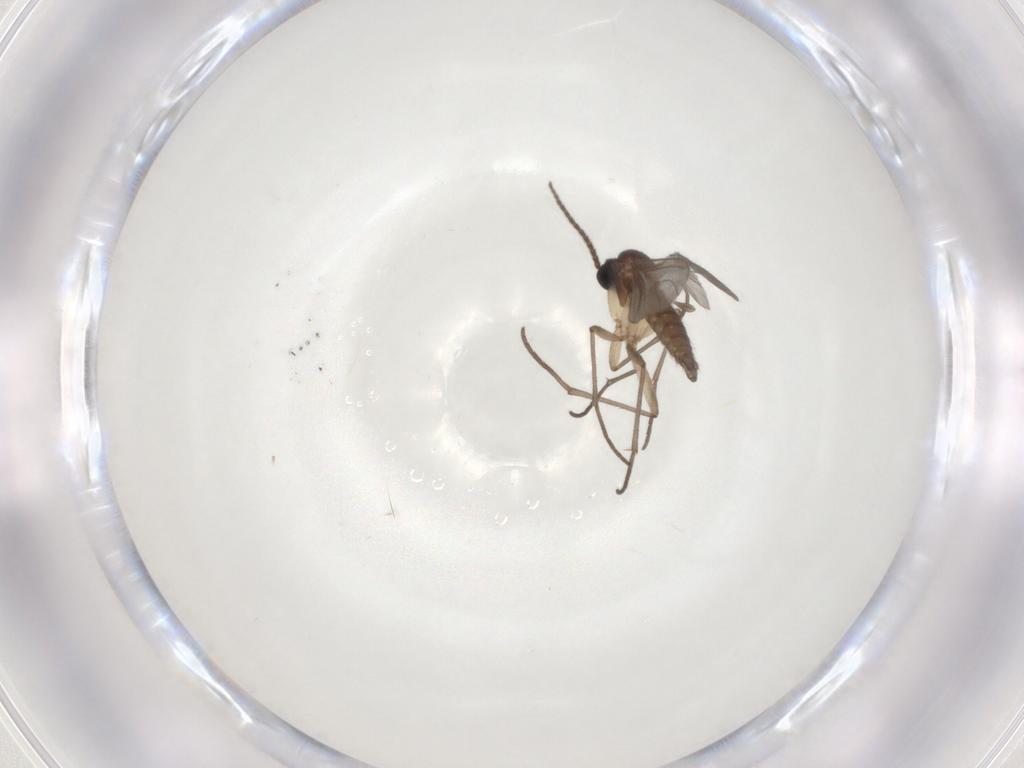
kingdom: Animalia
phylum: Arthropoda
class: Insecta
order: Diptera
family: Sciaridae
